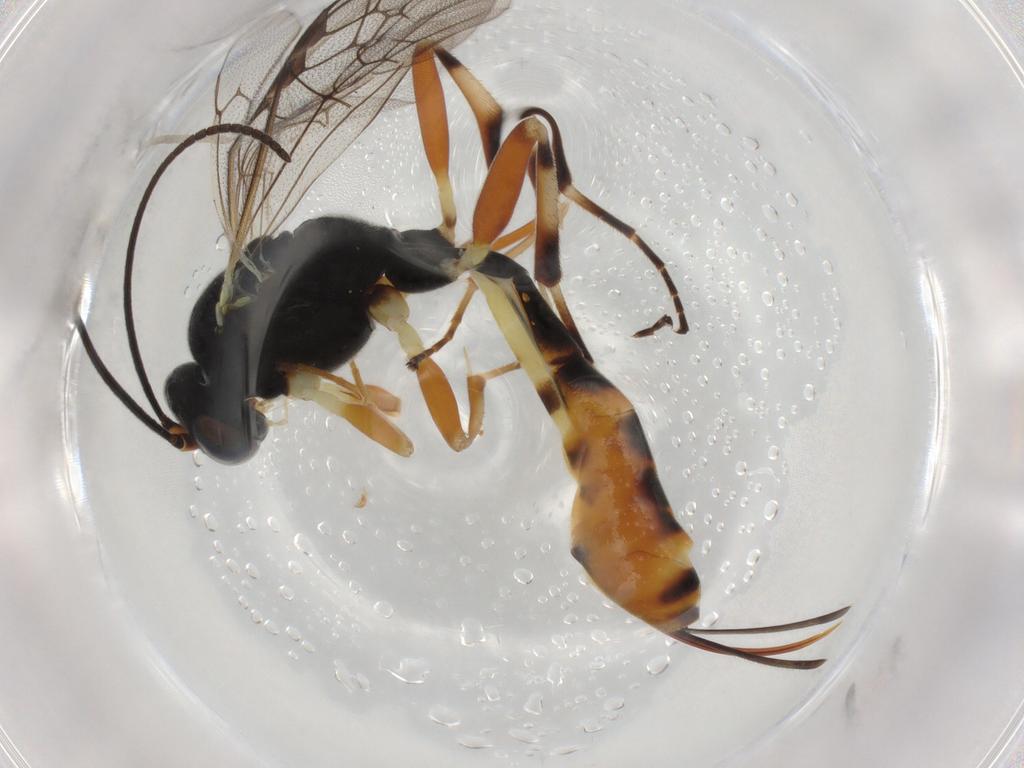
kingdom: Animalia
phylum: Arthropoda
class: Insecta
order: Hymenoptera
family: Ichneumonidae
